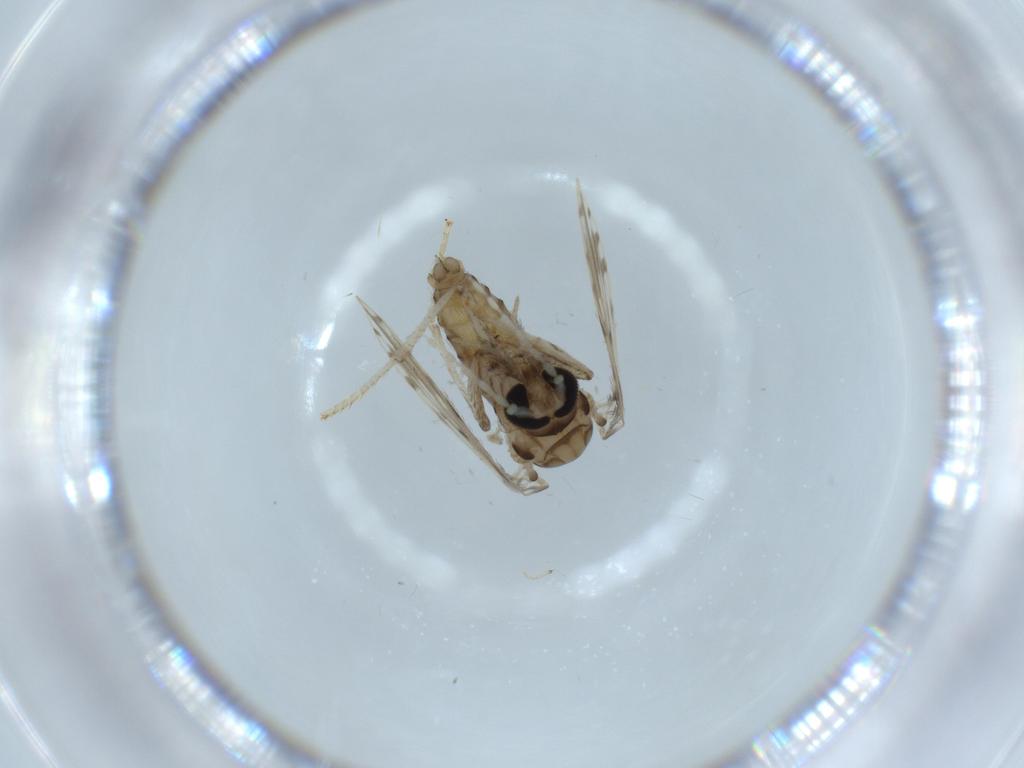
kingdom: Animalia
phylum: Arthropoda
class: Insecta
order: Diptera
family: Cecidomyiidae
